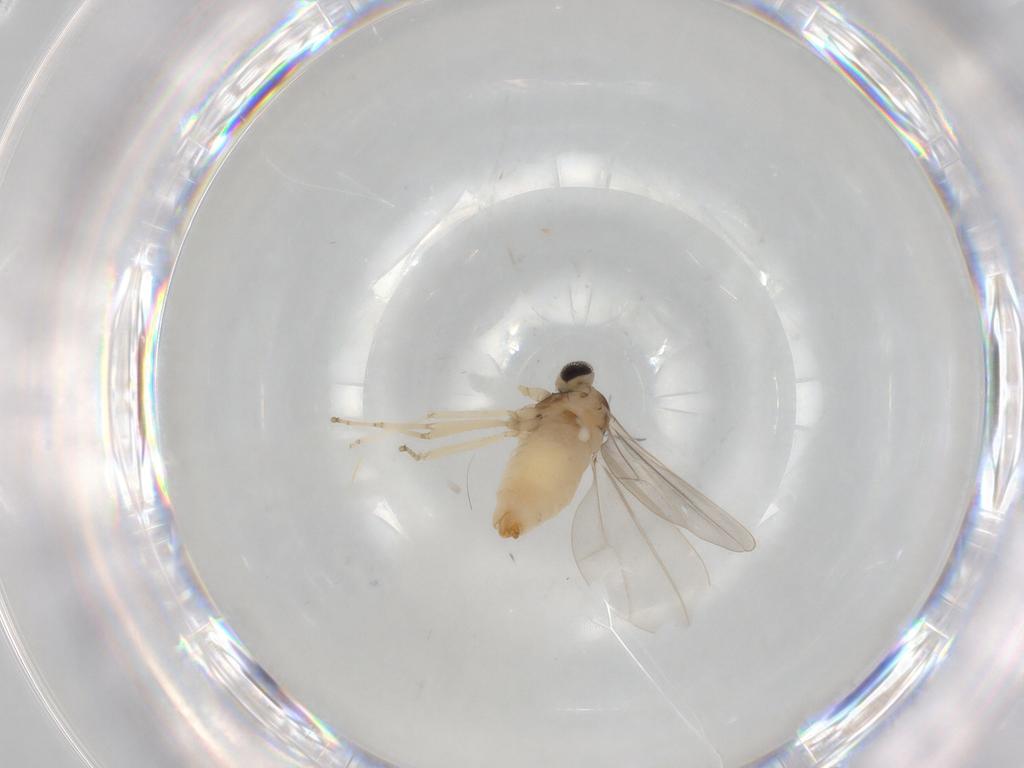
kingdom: Animalia
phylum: Arthropoda
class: Insecta
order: Diptera
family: Cecidomyiidae
